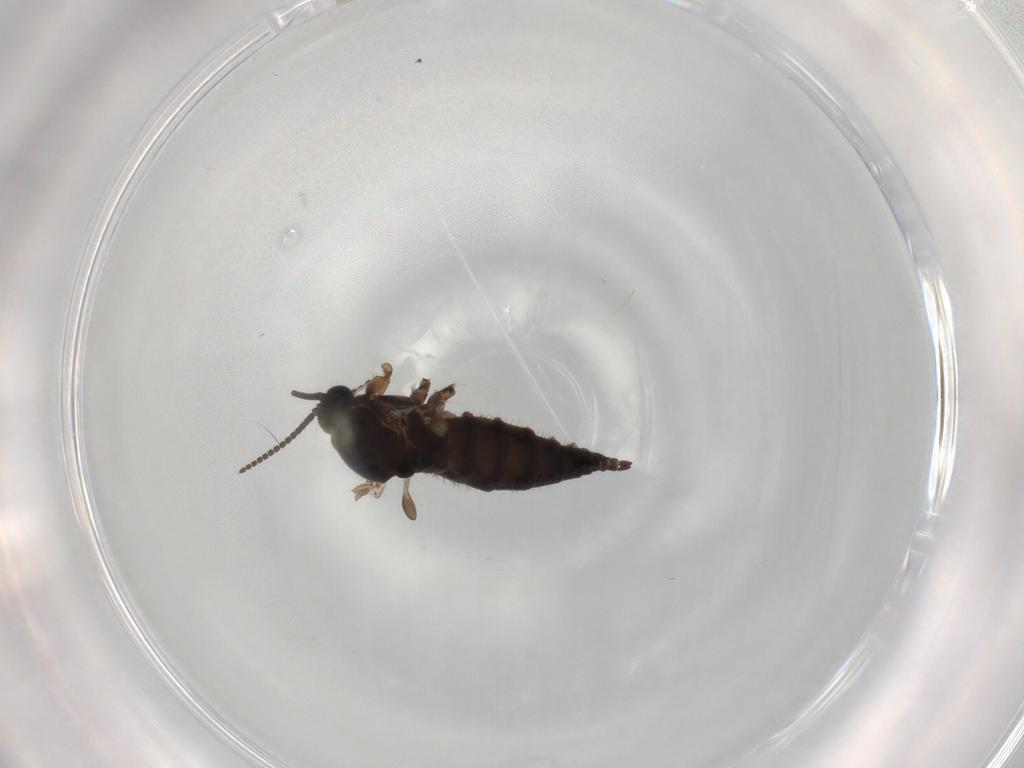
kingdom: Animalia
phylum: Arthropoda
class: Insecta
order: Diptera
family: Sciaridae
